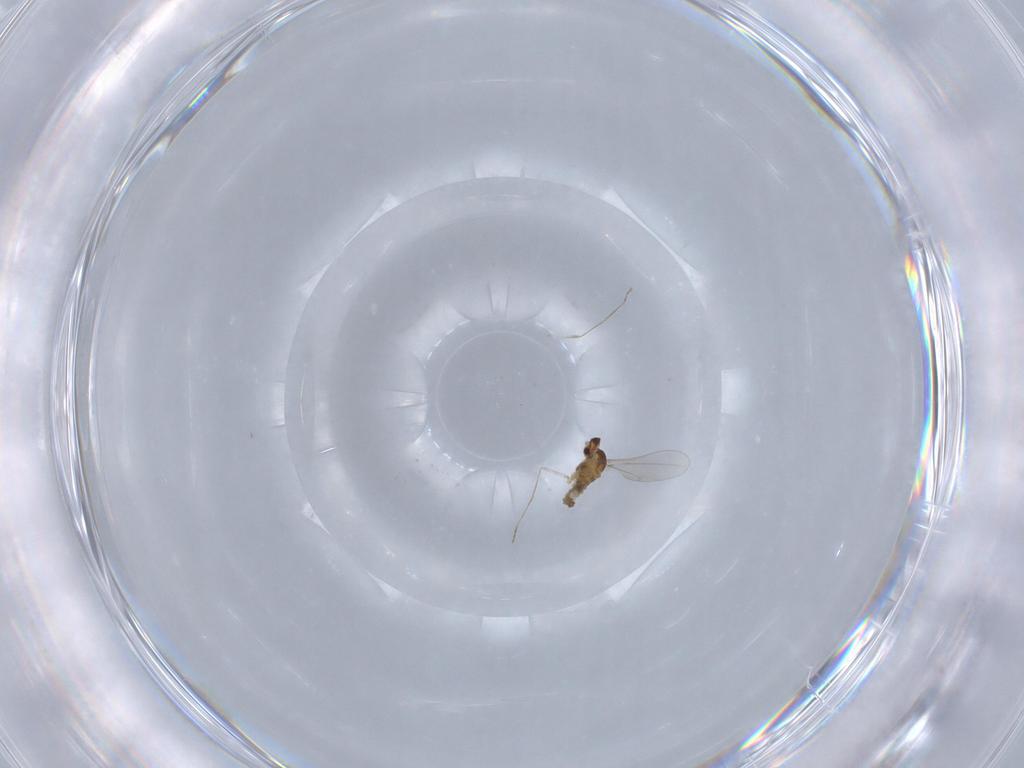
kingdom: Animalia
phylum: Arthropoda
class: Insecta
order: Diptera
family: Cecidomyiidae
